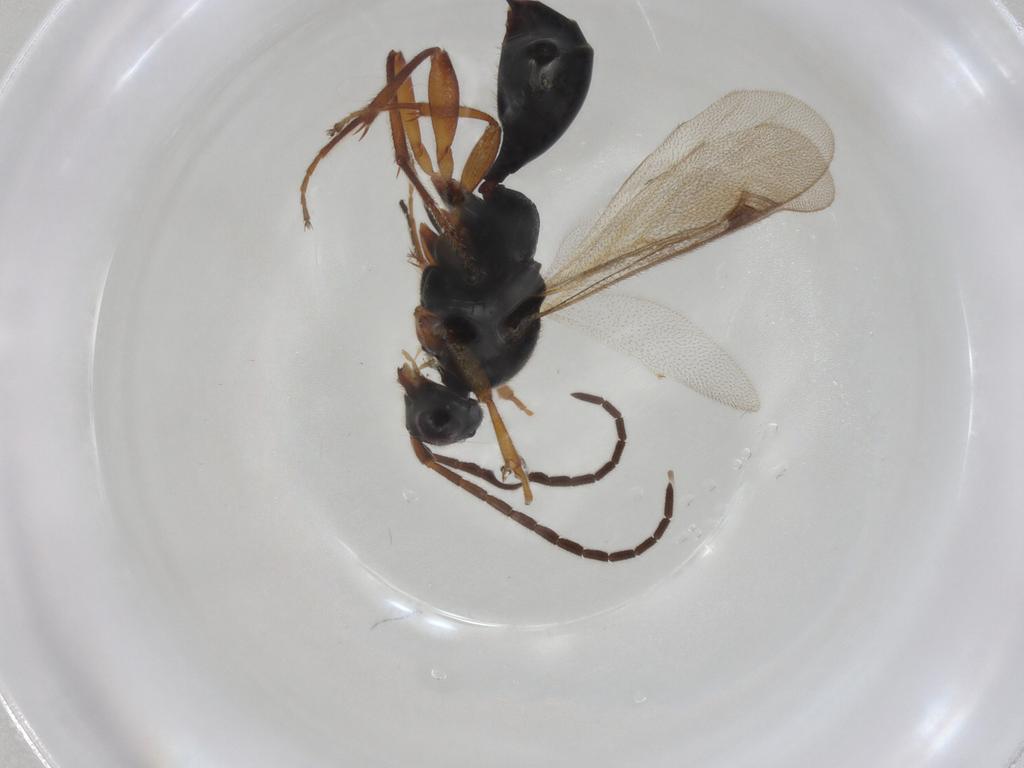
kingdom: Animalia
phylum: Arthropoda
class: Insecta
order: Hymenoptera
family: Proctotrupidae
